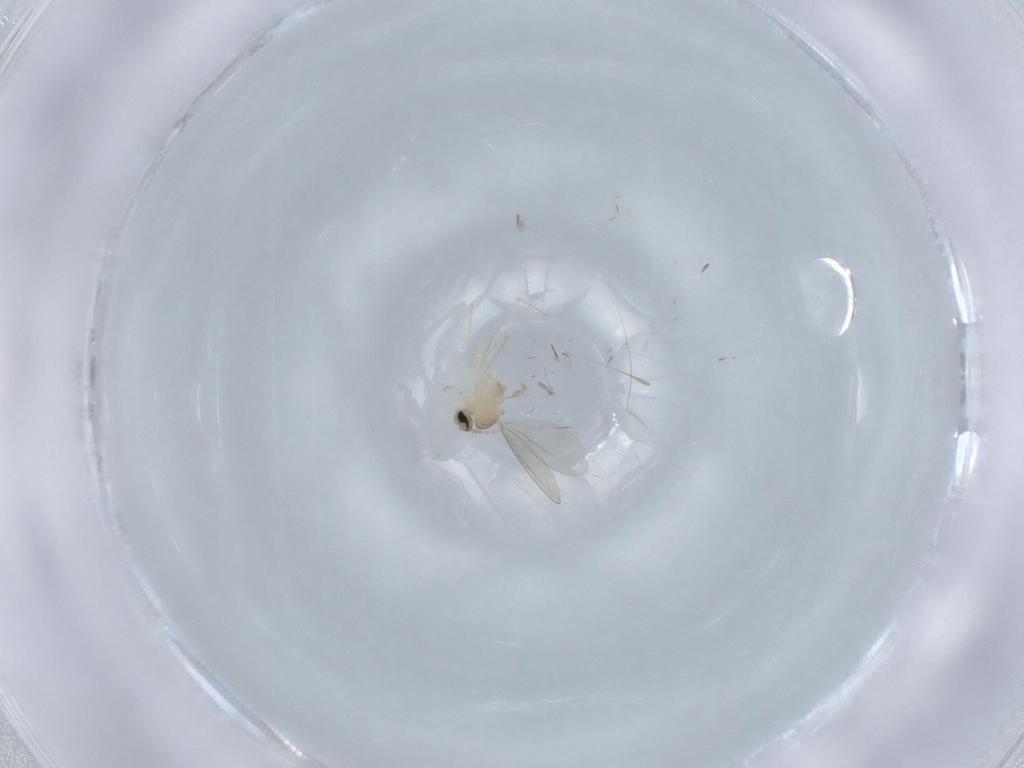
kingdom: Animalia
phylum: Arthropoda
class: Insecta
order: Diptera
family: Cecidomyiidae
